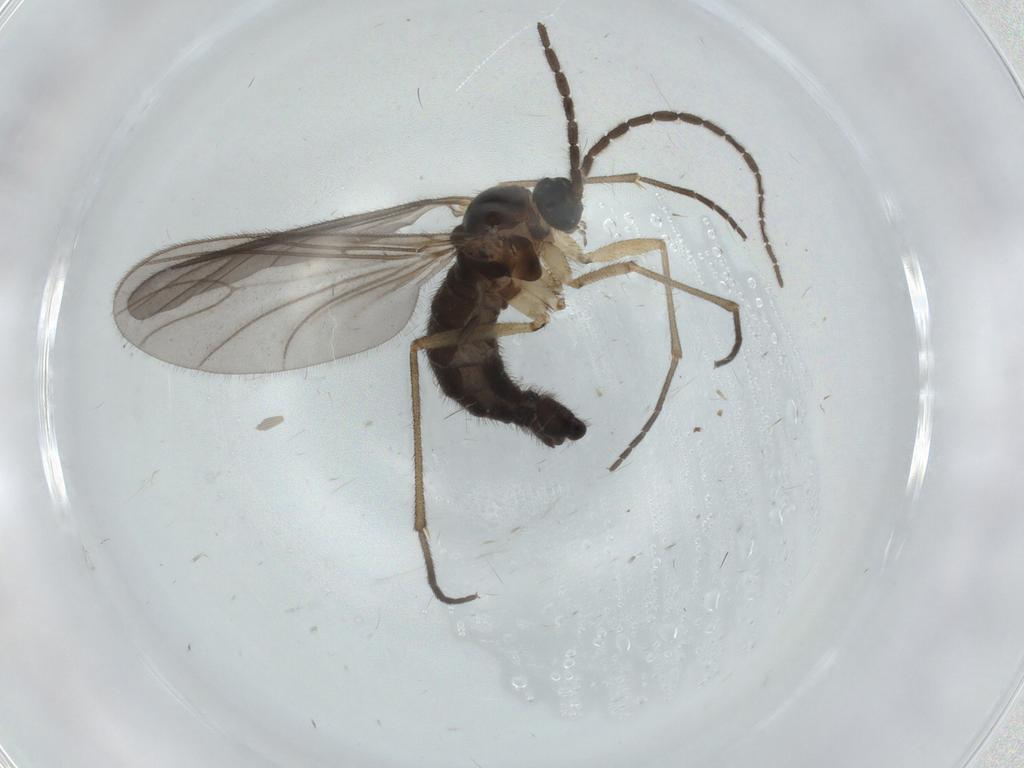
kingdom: Animalia
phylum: Arthropoda
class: Insecta
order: Diptera
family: Sciaridae
